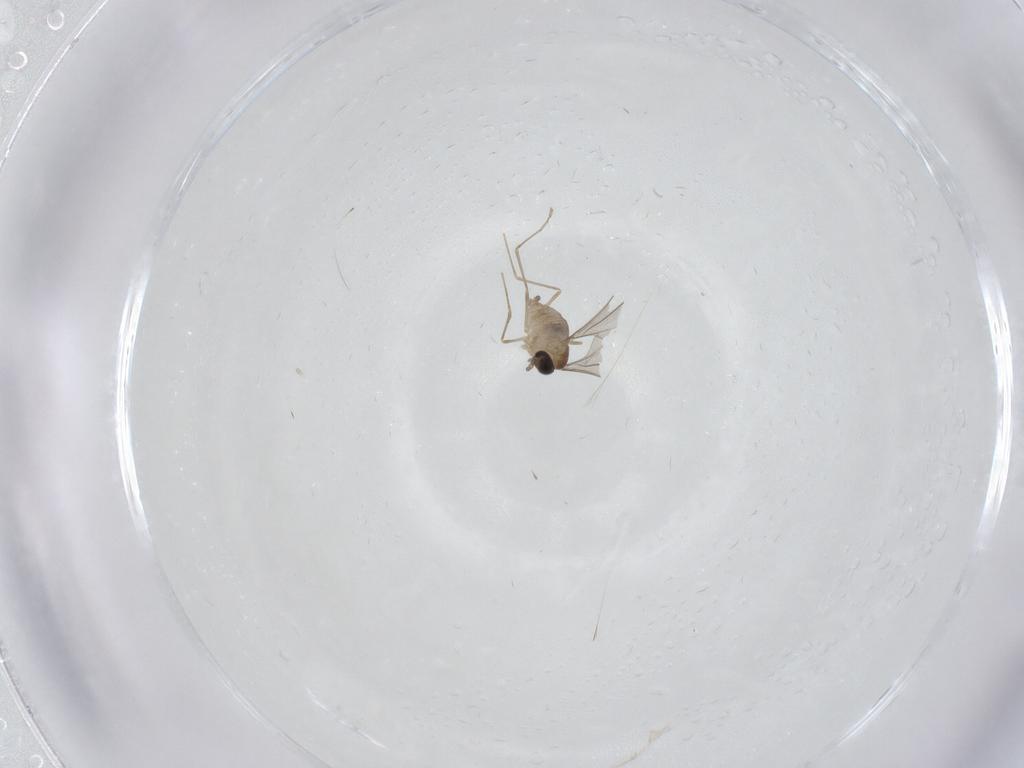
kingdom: Animalia
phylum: Arthropoda
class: Insecta
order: Diptera
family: Cecidomyiidae
